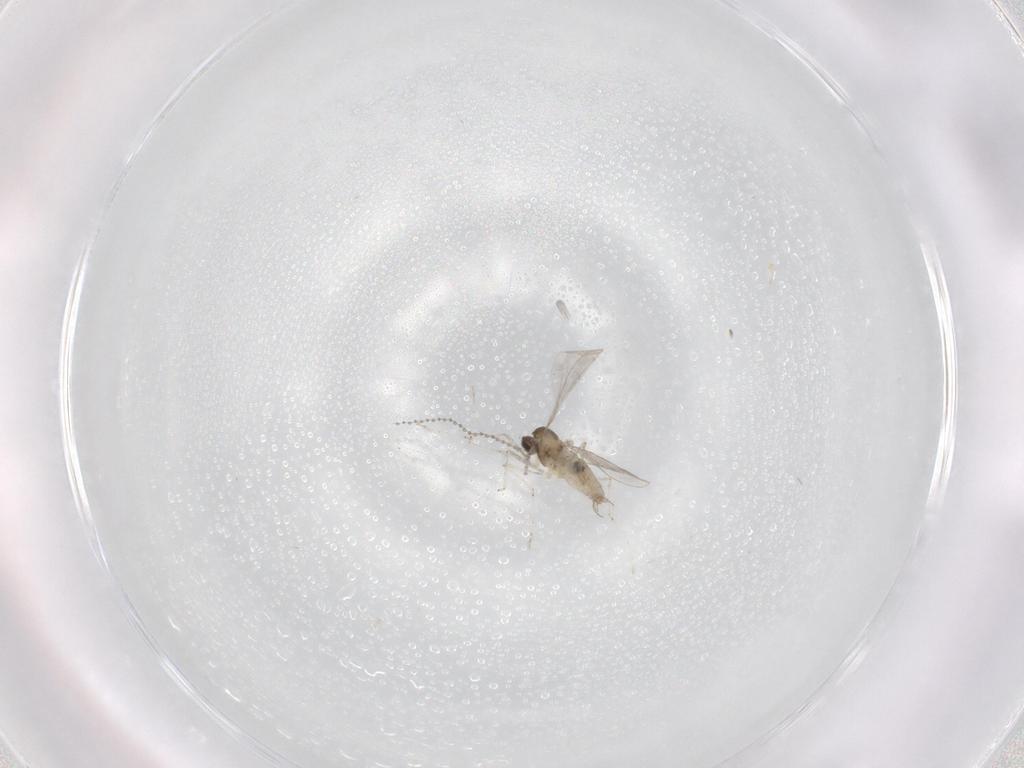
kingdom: Animalia
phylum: Arthropoda
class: Insecta
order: Diptera
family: Cecidomyiidae
